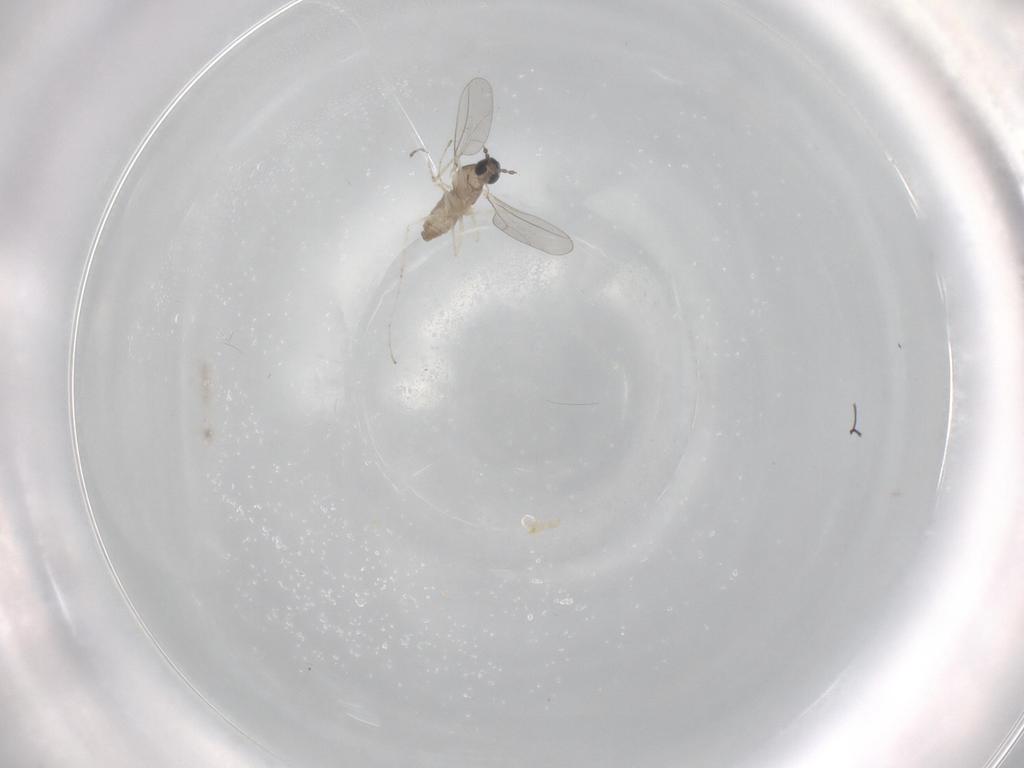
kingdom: Animalia
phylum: Arthropoda
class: Insecta
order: Diptera
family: Cecidomyiidae
